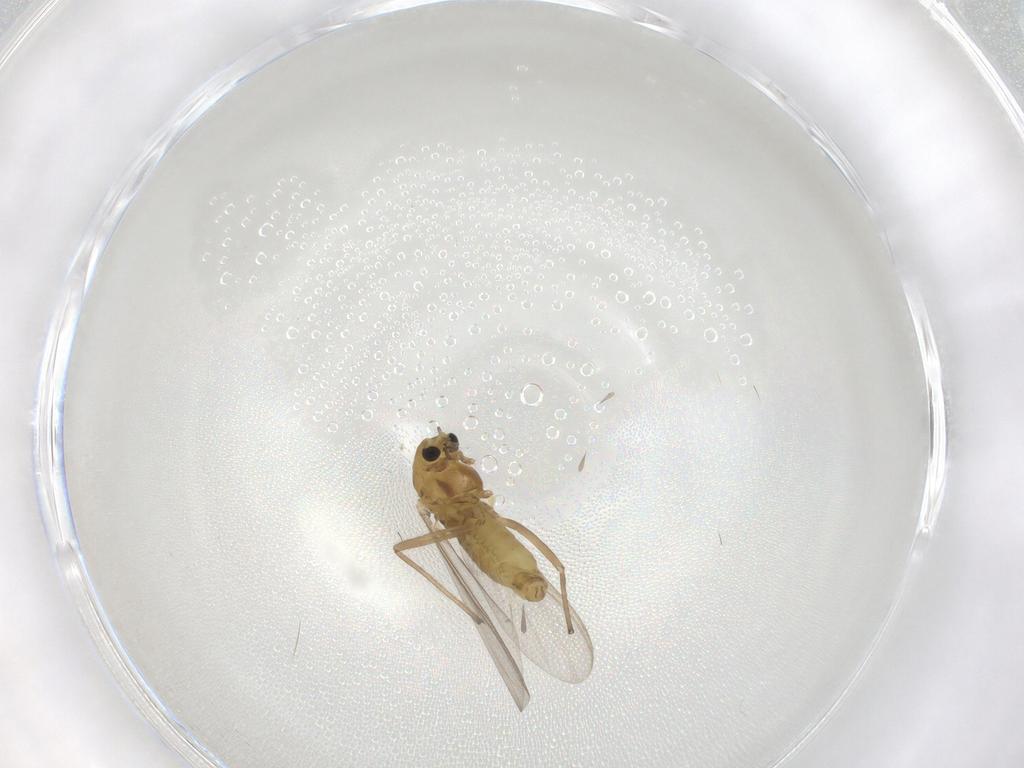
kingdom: Animalia
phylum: Arthropoda
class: Insecta
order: Diptera
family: Chironomidae
